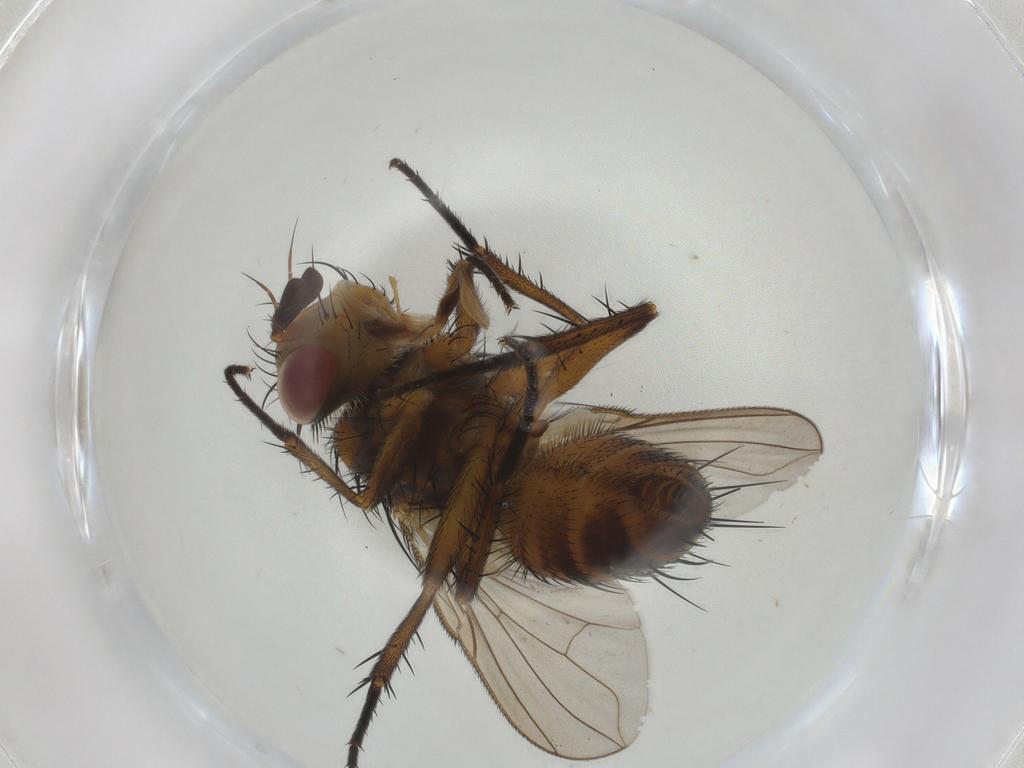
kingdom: Animalia
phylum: Arthropoda
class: Insecta
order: Diptera
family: Tachinidae
